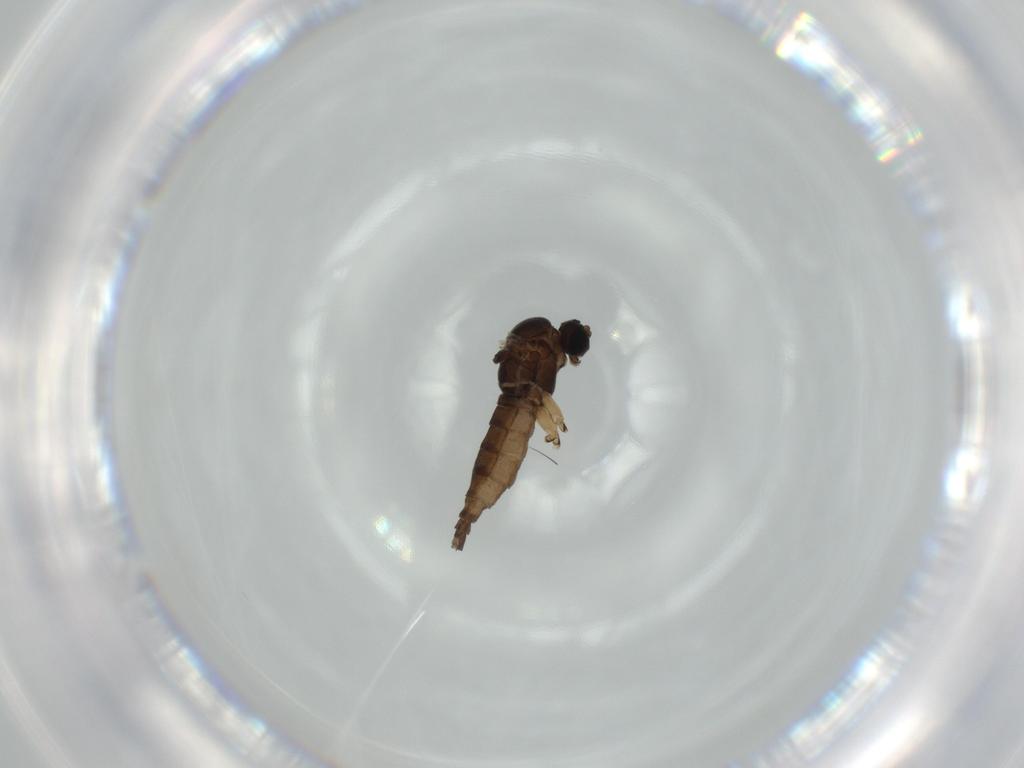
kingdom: Animalia
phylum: Arthropoda
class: Insecta
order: Diptera
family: Sciaridae
